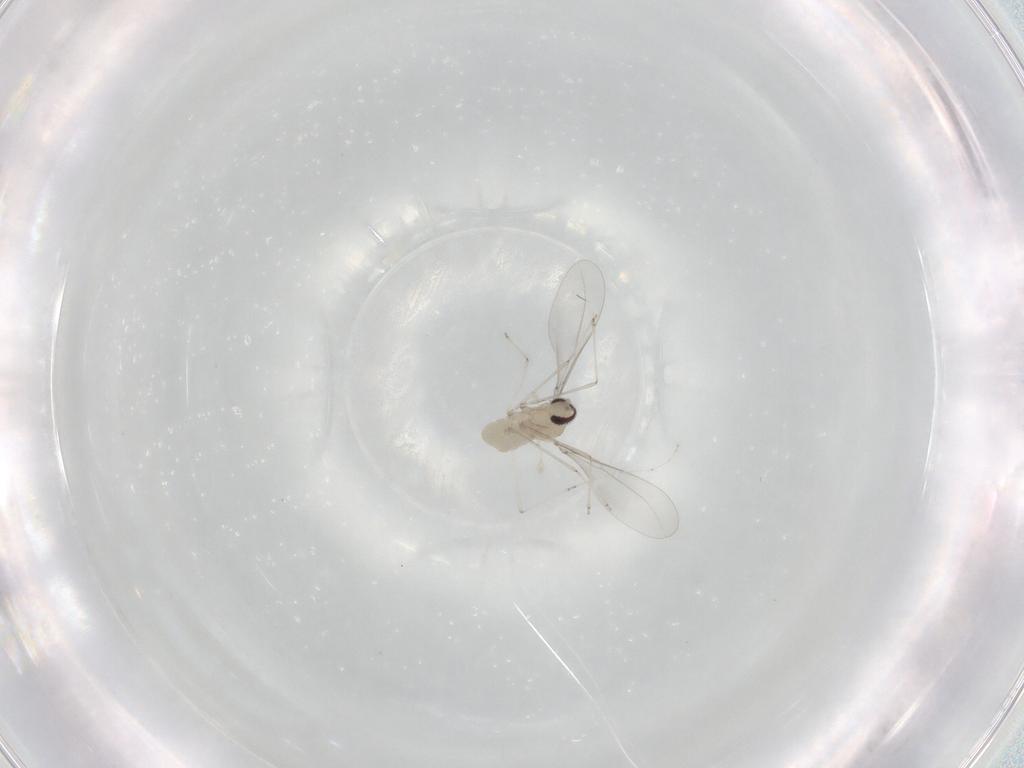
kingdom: Animalia
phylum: Arthropoda
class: Insecta
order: Diptera
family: Cecidomyiidae
